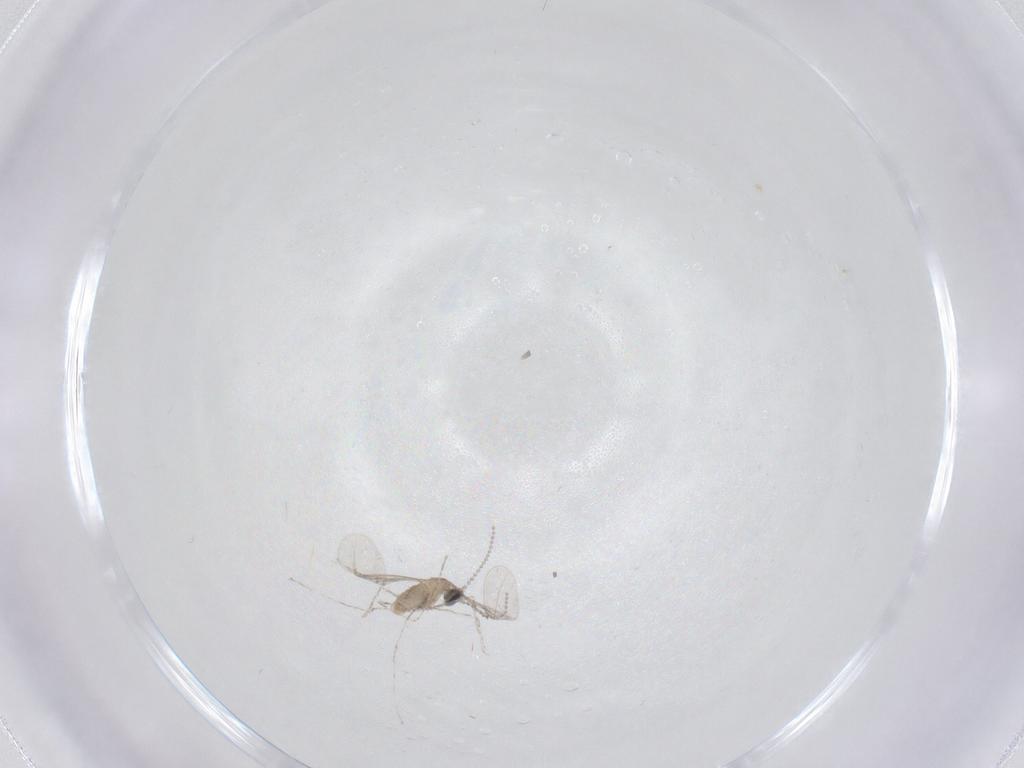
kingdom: Animalia
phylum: Arthropoda
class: Insecta
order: Diptera
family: Cecidomyiidae
